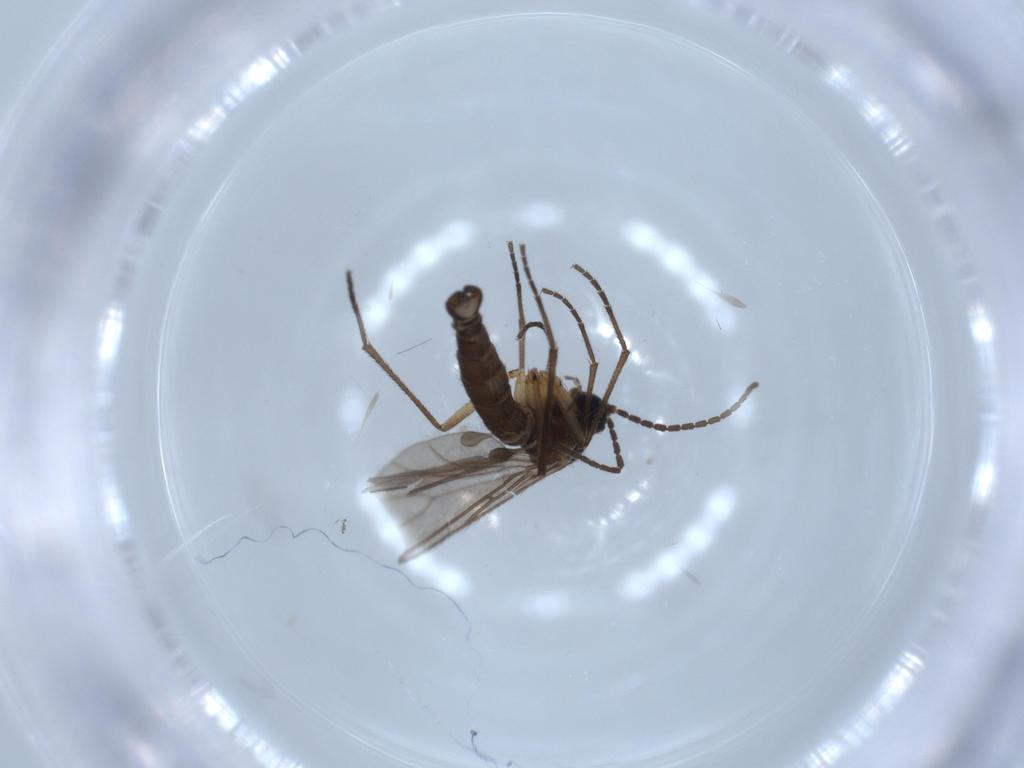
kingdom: Animalia
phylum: Arthropoda
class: Insecta
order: Diptera
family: Sciaridae
